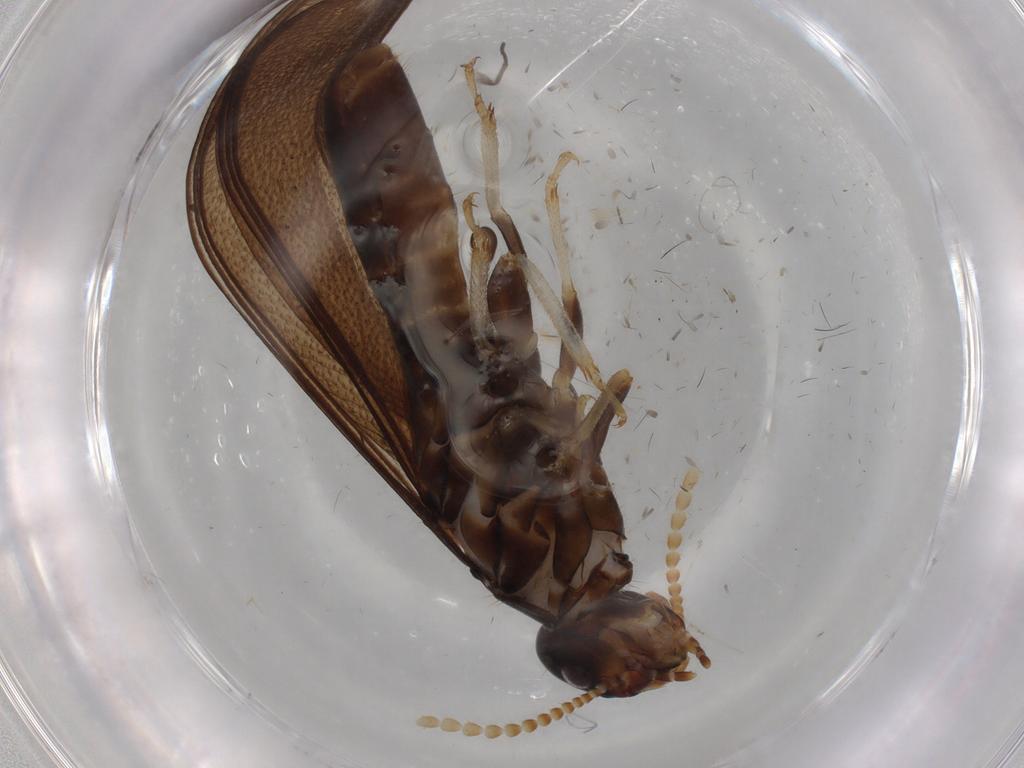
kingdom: Animalia
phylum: Arthropoda
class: Insecta
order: Blattodea
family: Kalotermitidae
